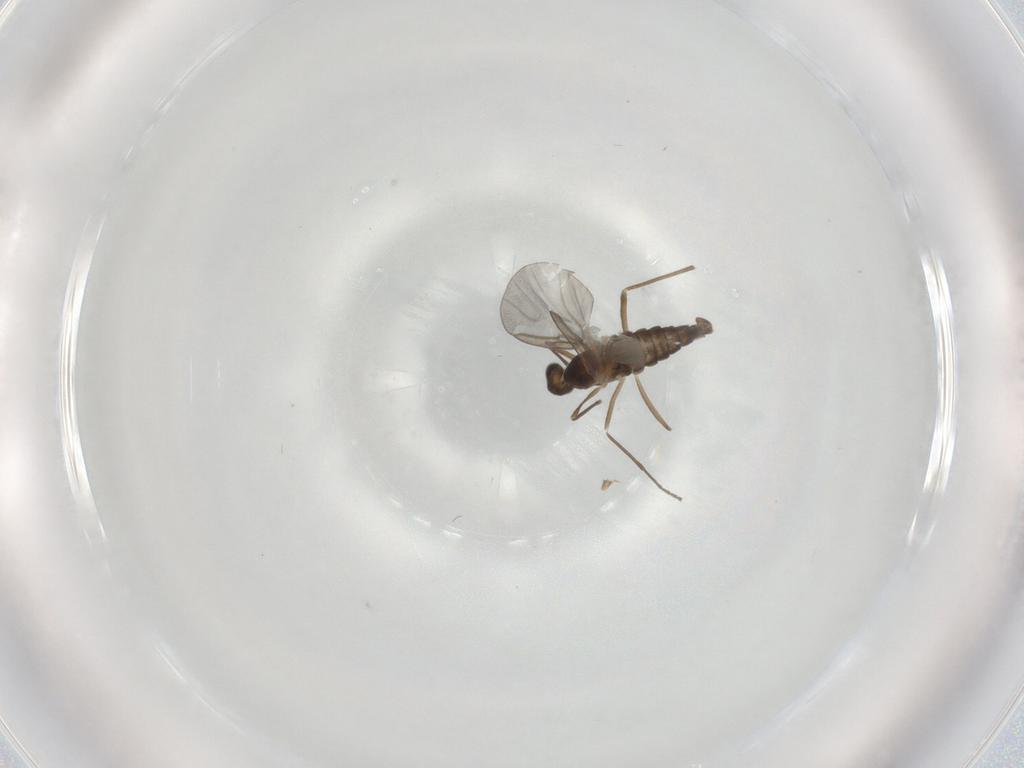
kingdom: Animalia
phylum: Arthropoda
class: Insecta
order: Diptera
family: Cecidomyiidae
